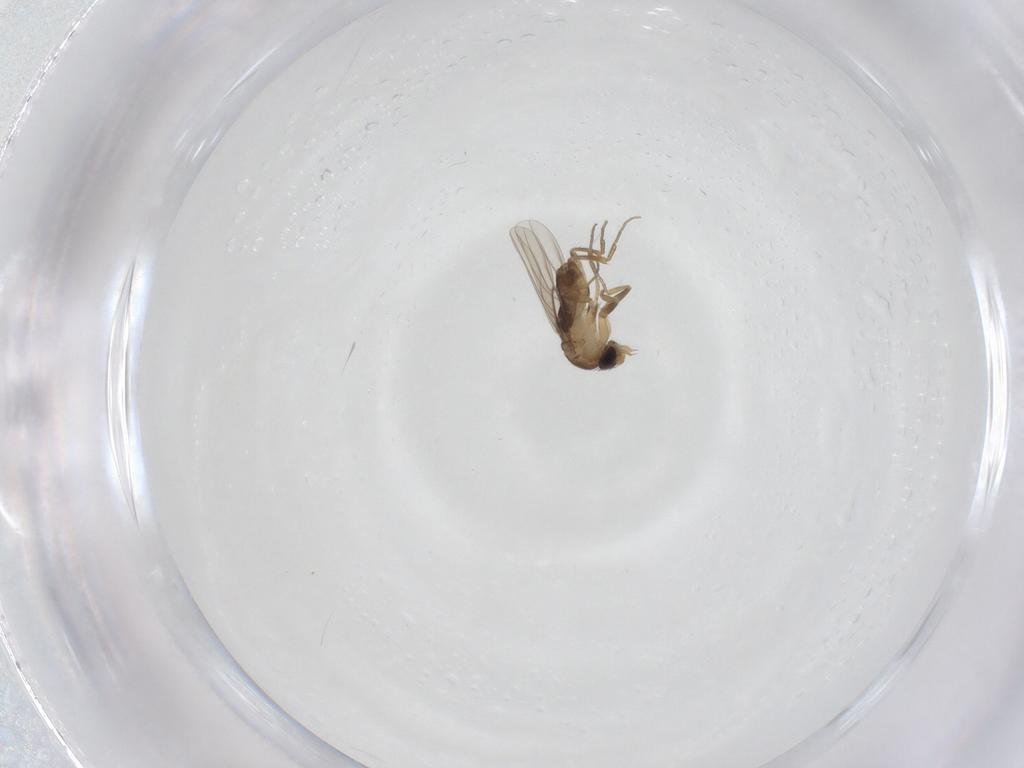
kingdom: Animalia
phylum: Arthropoda
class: Insecta
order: Diptera
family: Phoridae
